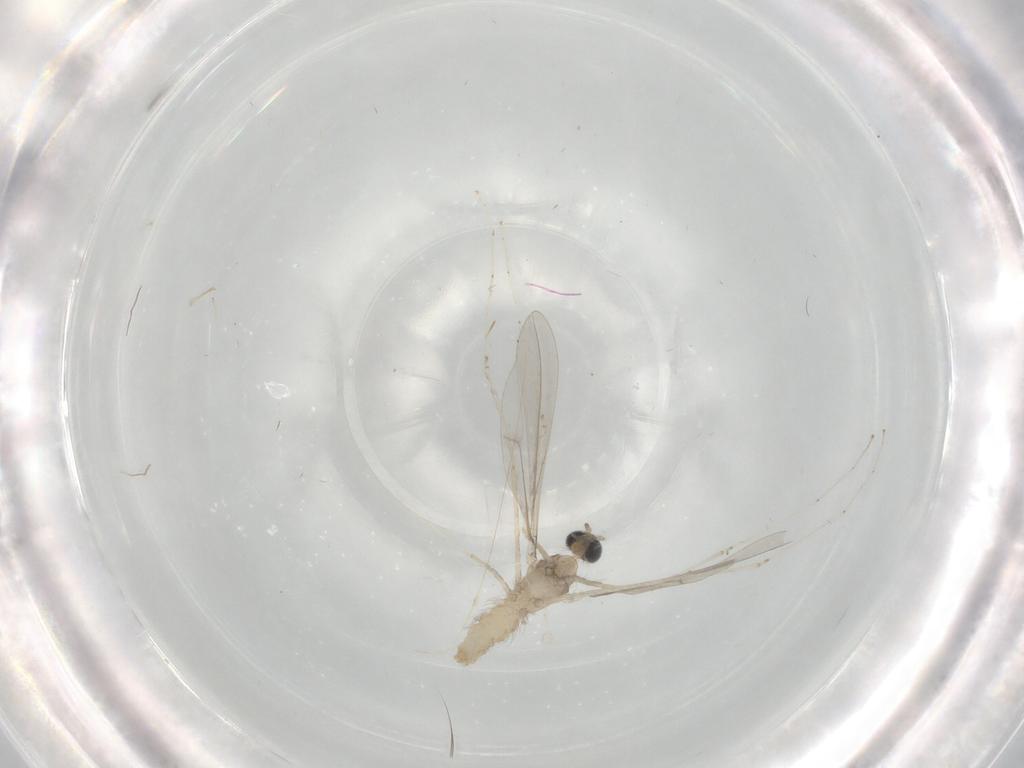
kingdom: Animalia
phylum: Arthropoda
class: Insecta
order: Diptera
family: Cecidomyiidae
